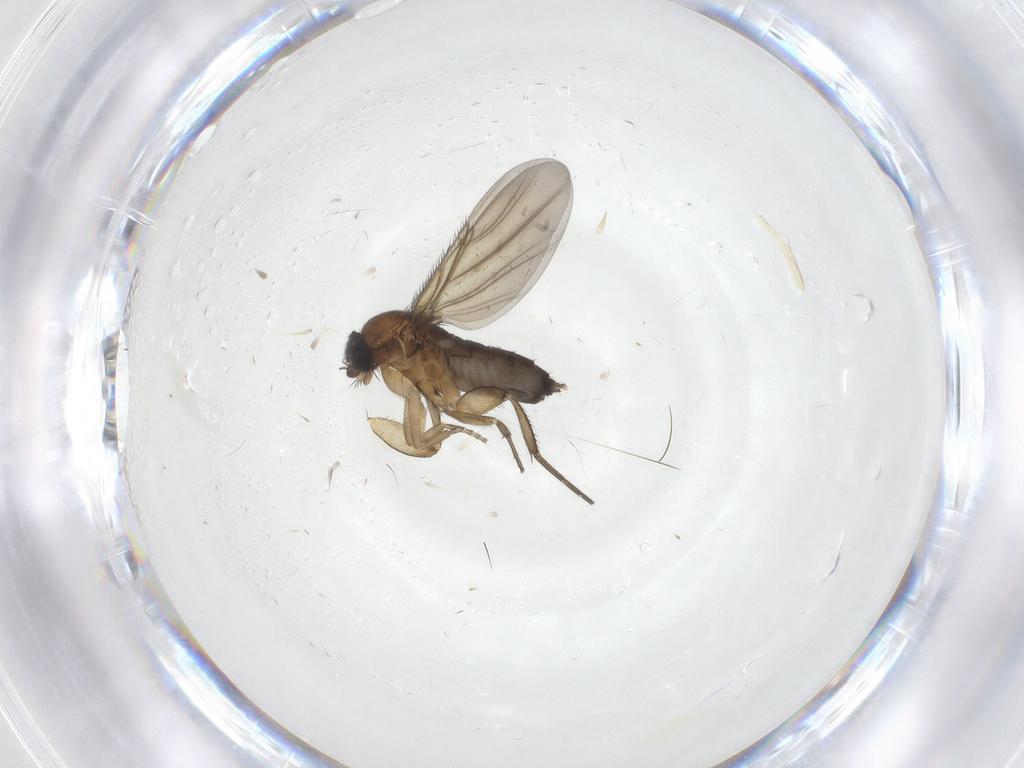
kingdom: Animalia
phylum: Arthropoda
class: Insecta
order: Diptera
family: Phoridae
